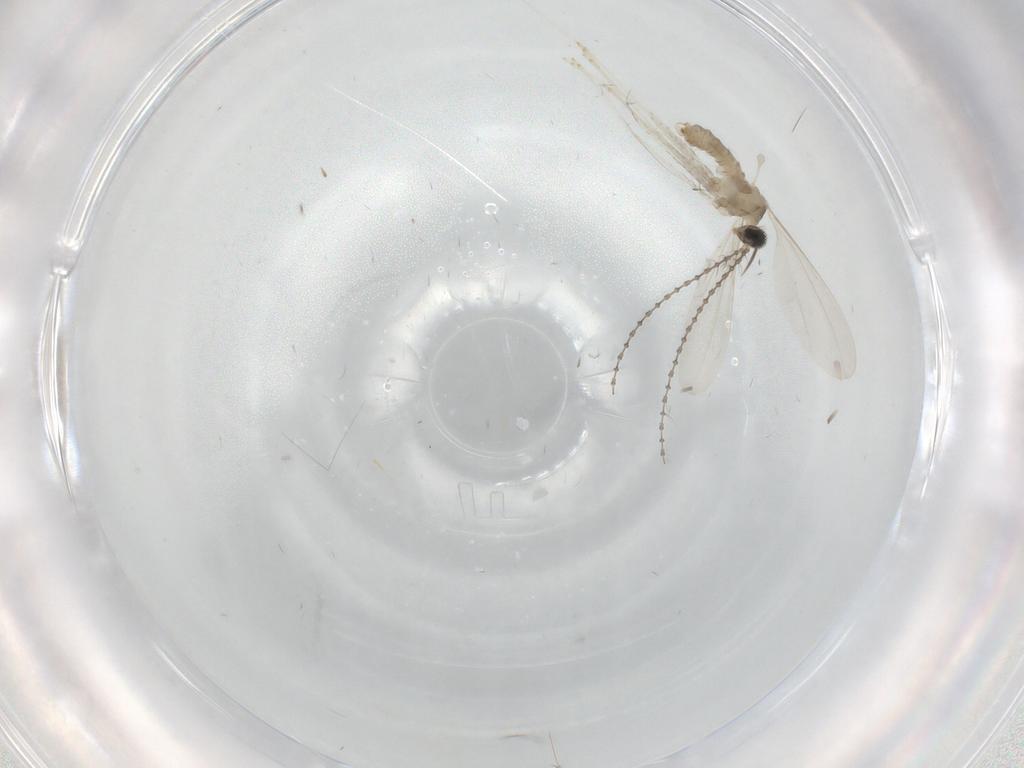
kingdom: Animalia
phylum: Arthropoda
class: Insecta
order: Diptera
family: Cecidomyiidae
